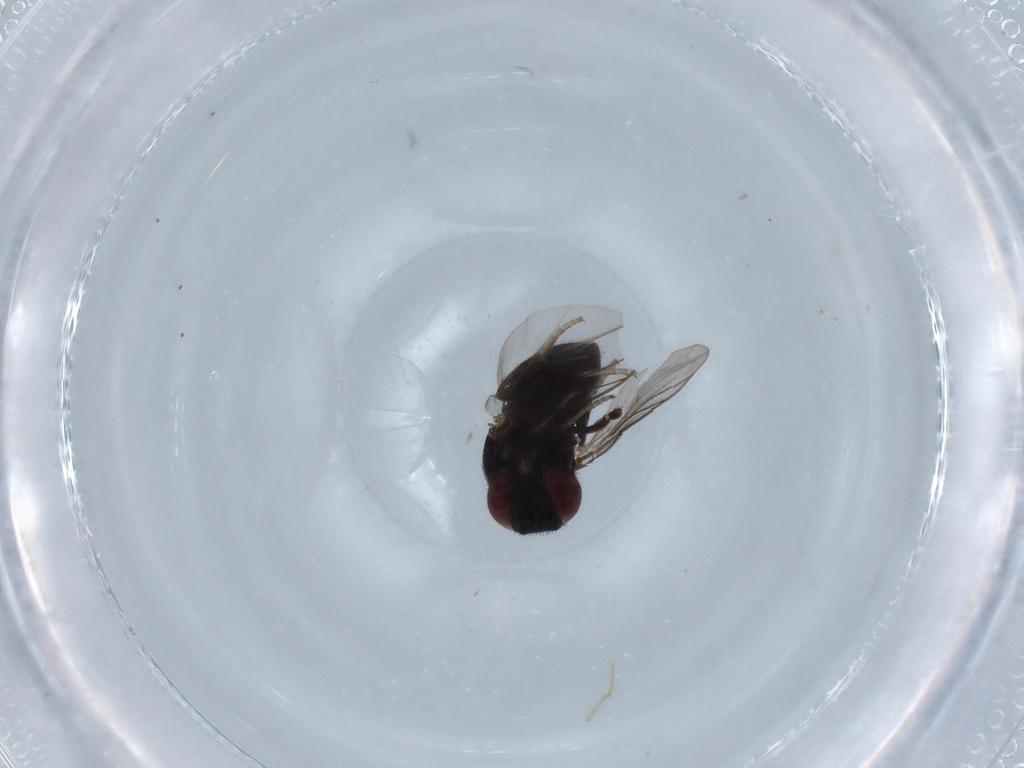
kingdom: Animalia
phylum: Arthropoda
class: Insecta
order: Diptera
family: Cryptochetidae
